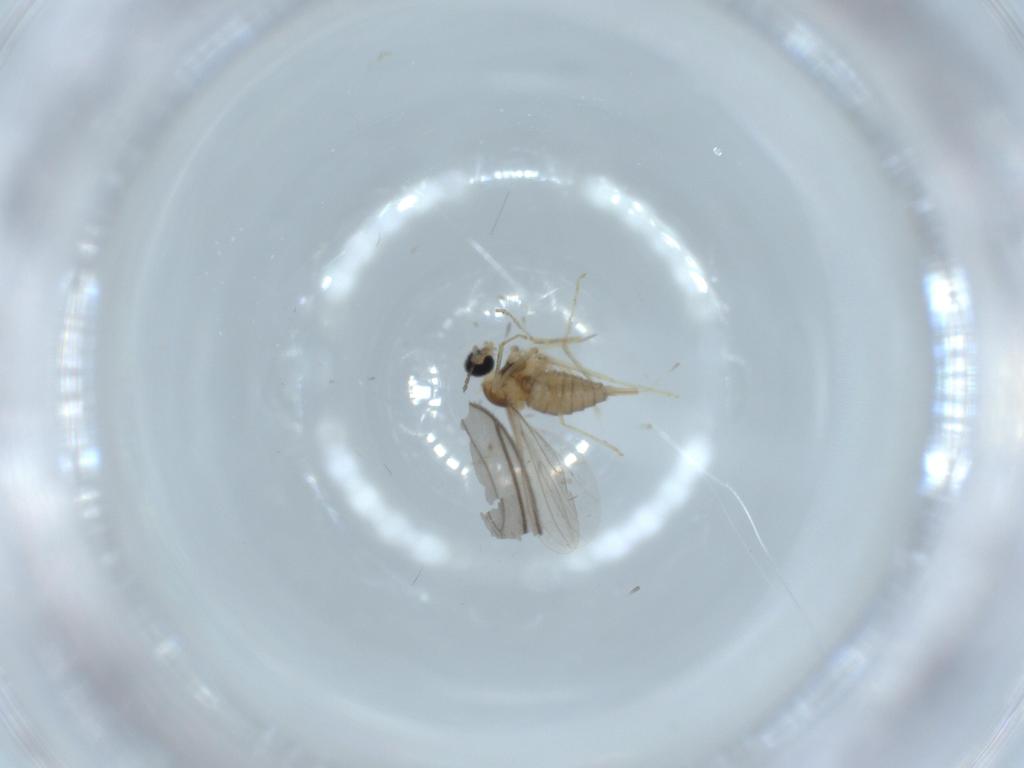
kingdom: Animalia
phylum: Arthropoda
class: Insecta
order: Diptera
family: Cecidomyiidae
